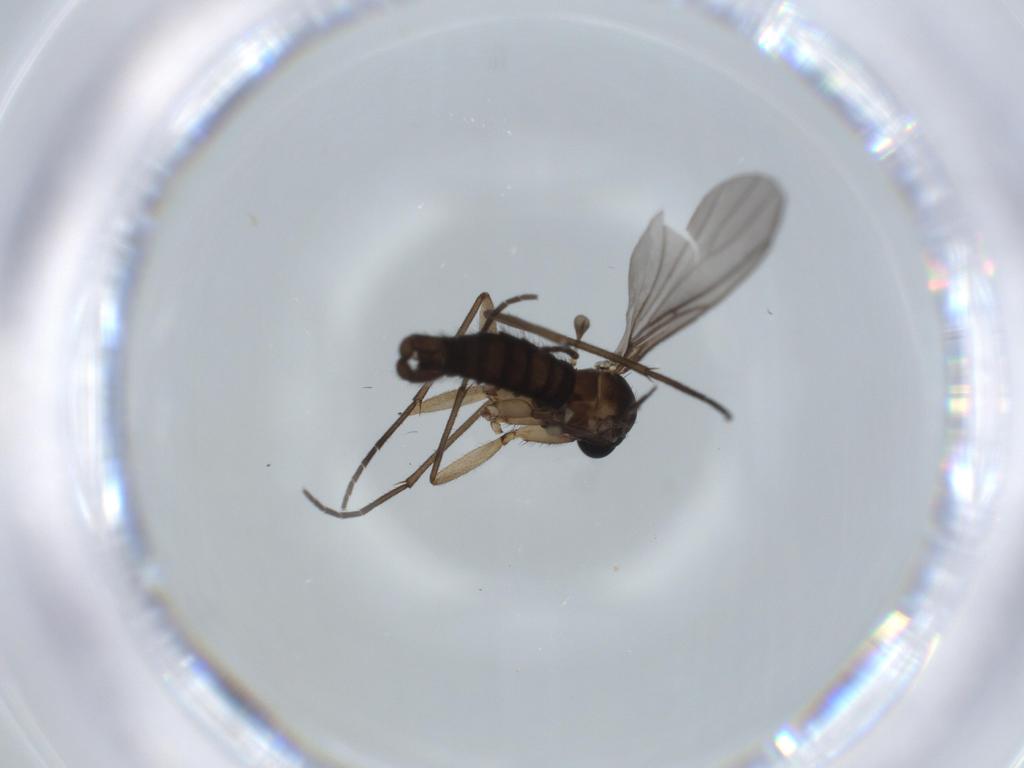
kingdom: Animalia
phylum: Arthropoda
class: Insecta
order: Diptera
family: Sciaridae
